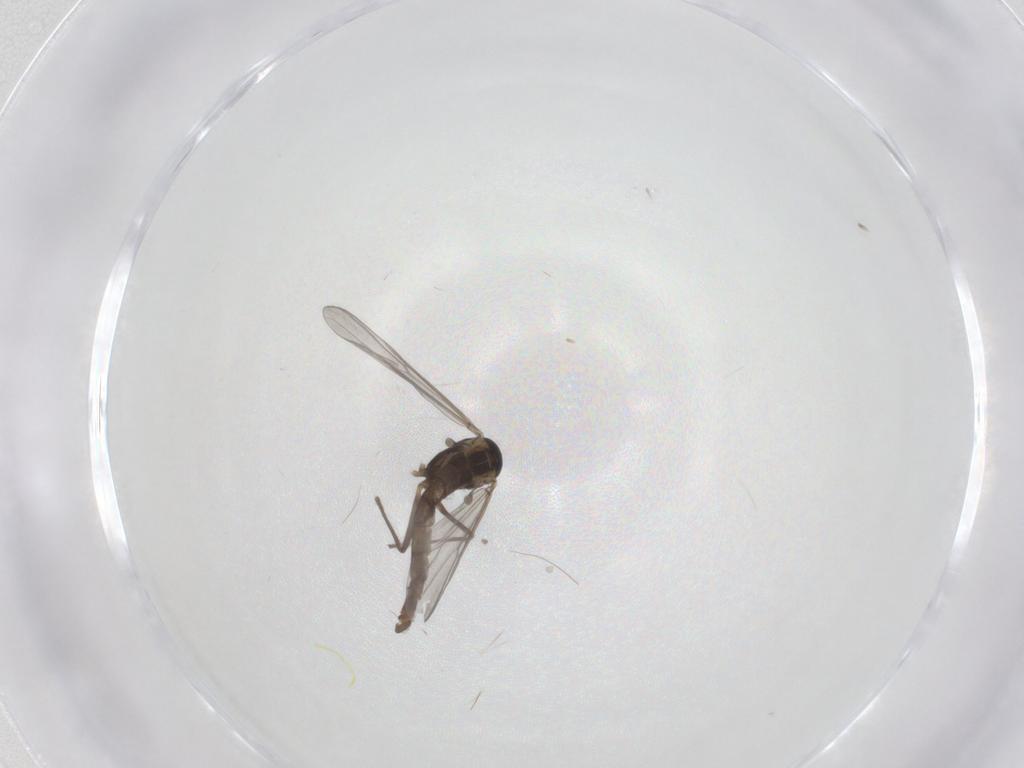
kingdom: Animalia
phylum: Arthropoda
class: Insecta
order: Diptera
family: Chironomidae
